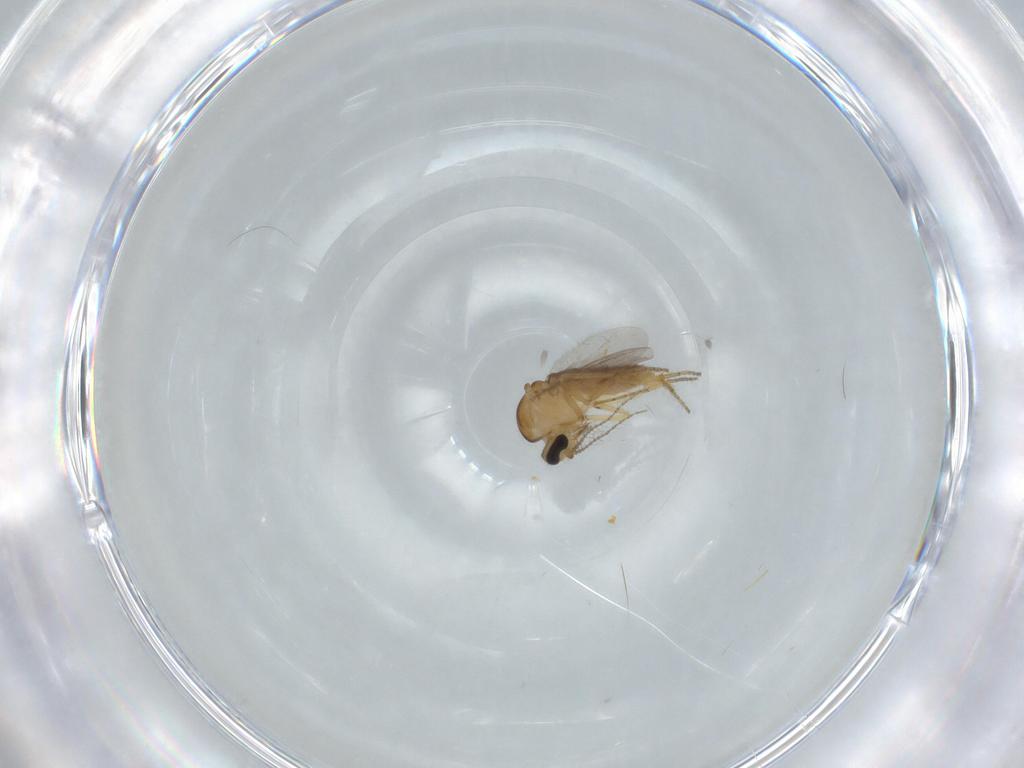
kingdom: Animalia
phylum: Arthropoda
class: Insecta
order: Diptera
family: Ceratopogonidae
